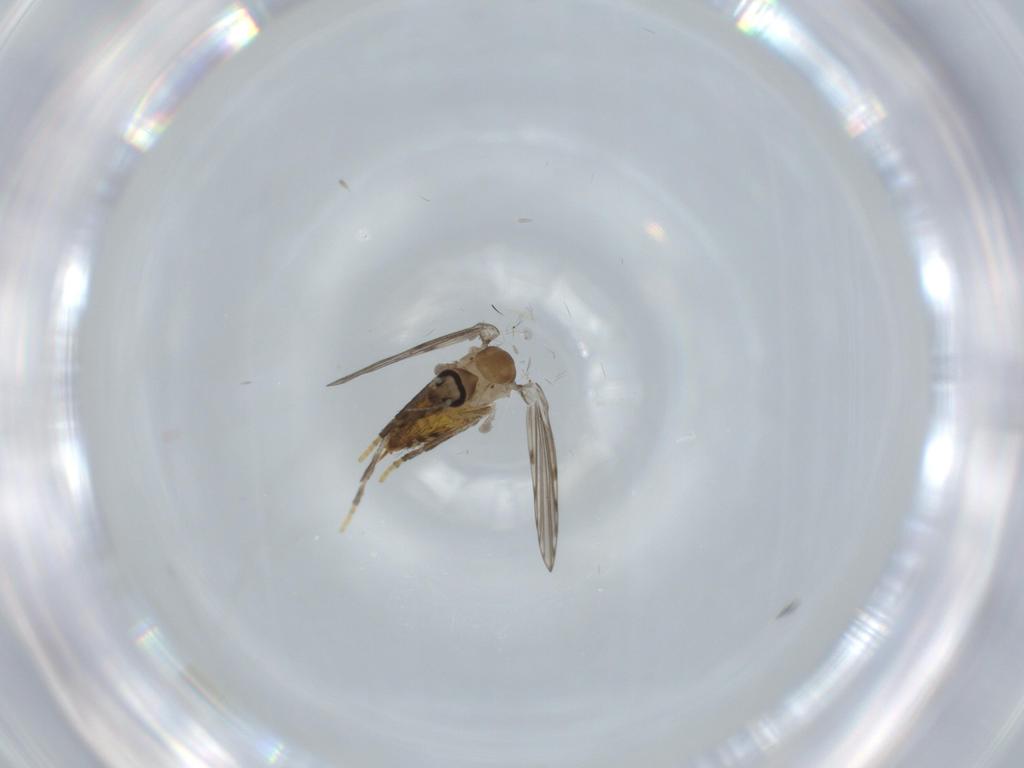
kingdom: Animalia
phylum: Arthropoda
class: Insecta
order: Diptera
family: Psychodidae
